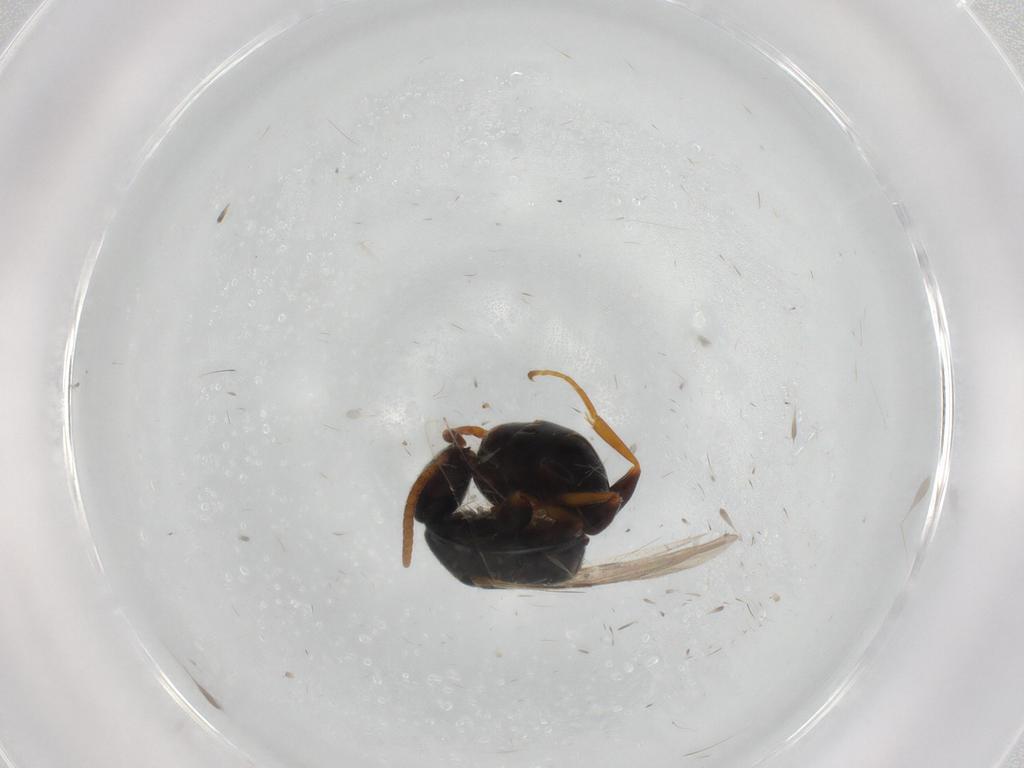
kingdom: Animalia
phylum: Arthropoda
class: Insecta
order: Hymenoptera
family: Bethylidae
